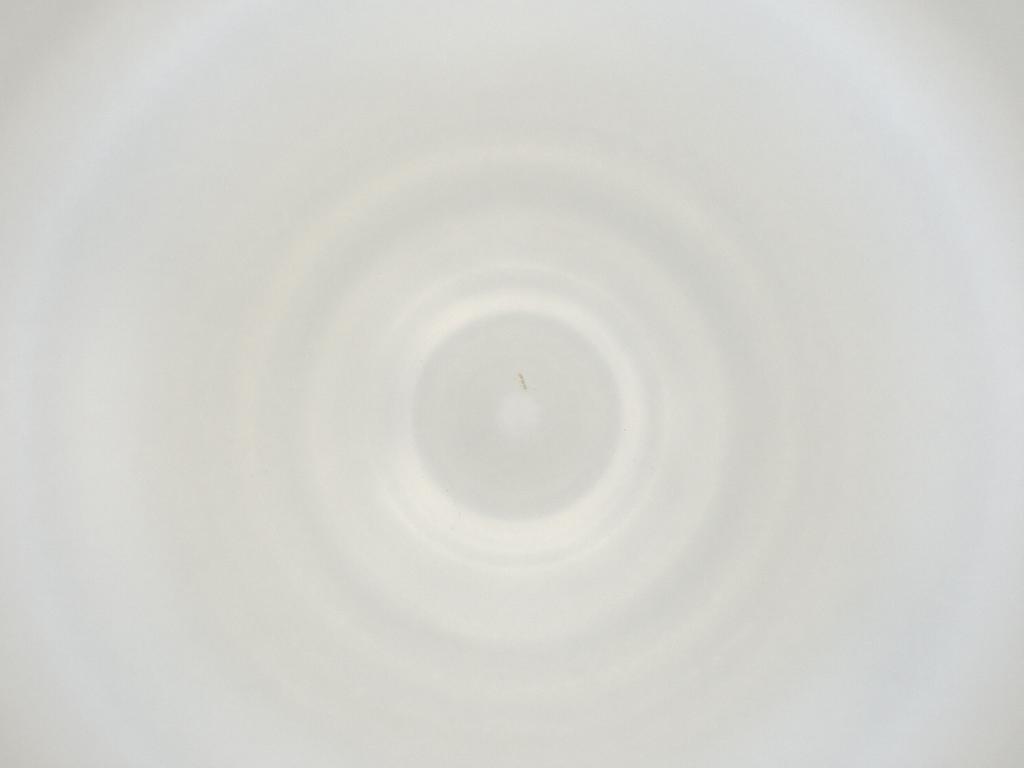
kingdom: Animalia
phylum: Arthropoda
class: Insecta
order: Diptera
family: Cecidomyiidae
